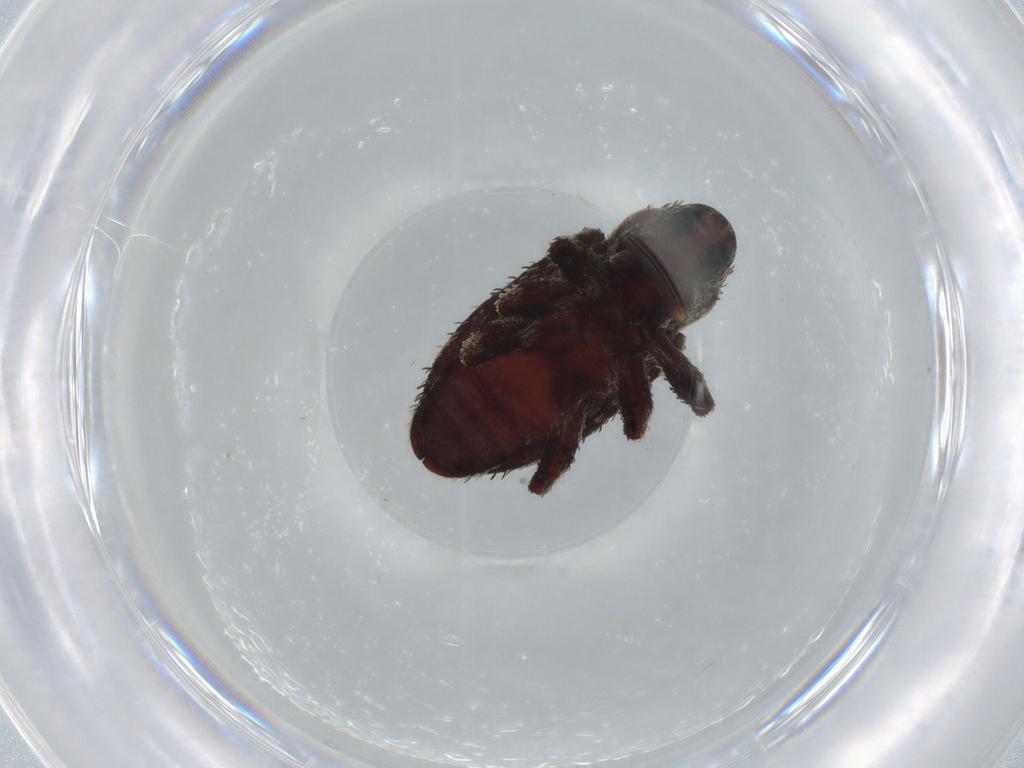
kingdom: Animalia
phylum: Arthropoda
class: Insecta
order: Coleoptera
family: Curculionidae
